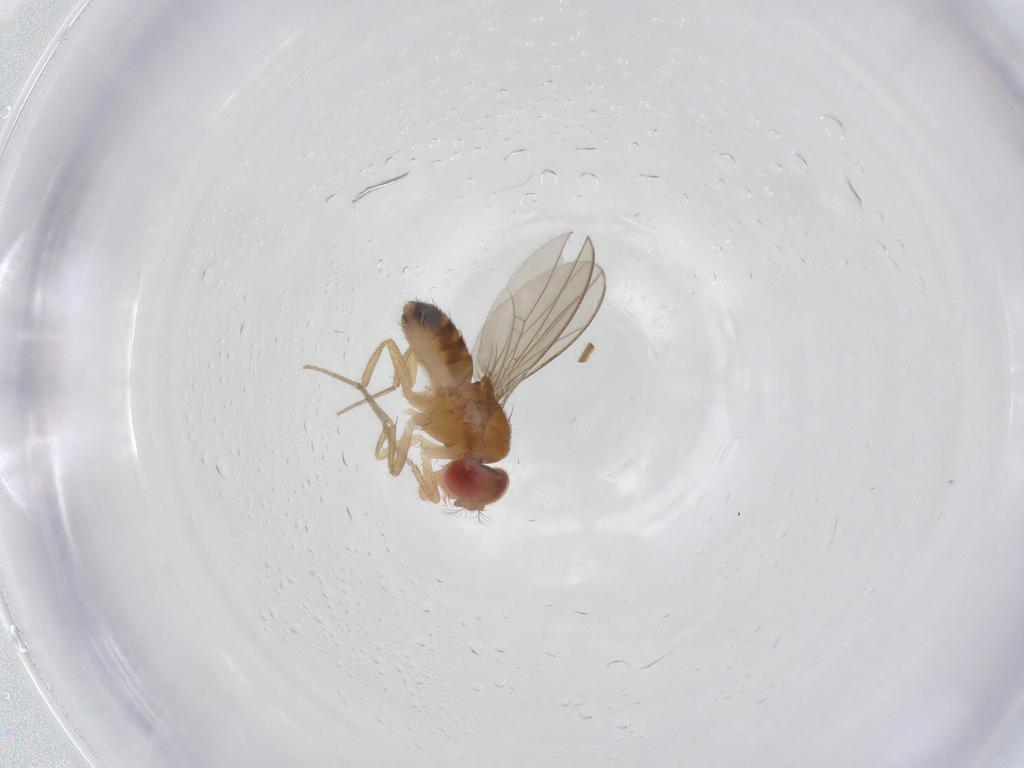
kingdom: Animalia
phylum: Arthropoda
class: Insecta
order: Diptera
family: Drosophilidae
